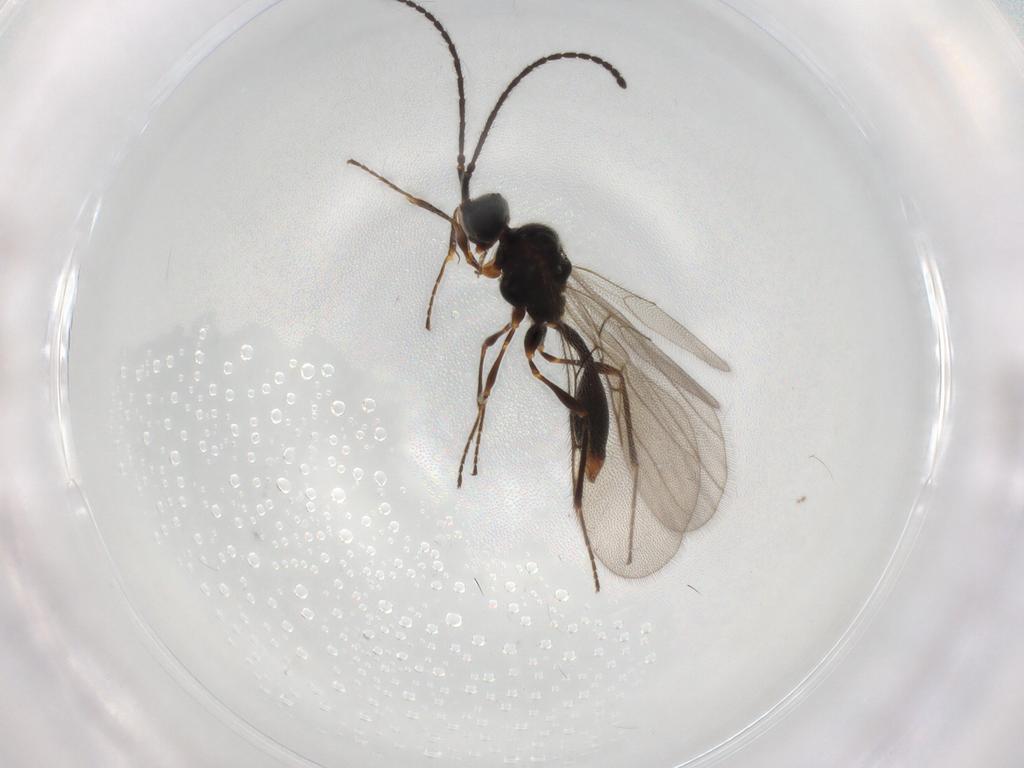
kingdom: Animalia
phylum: Arthropoda
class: Insecta
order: Hymenoptera
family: Diapriidae
